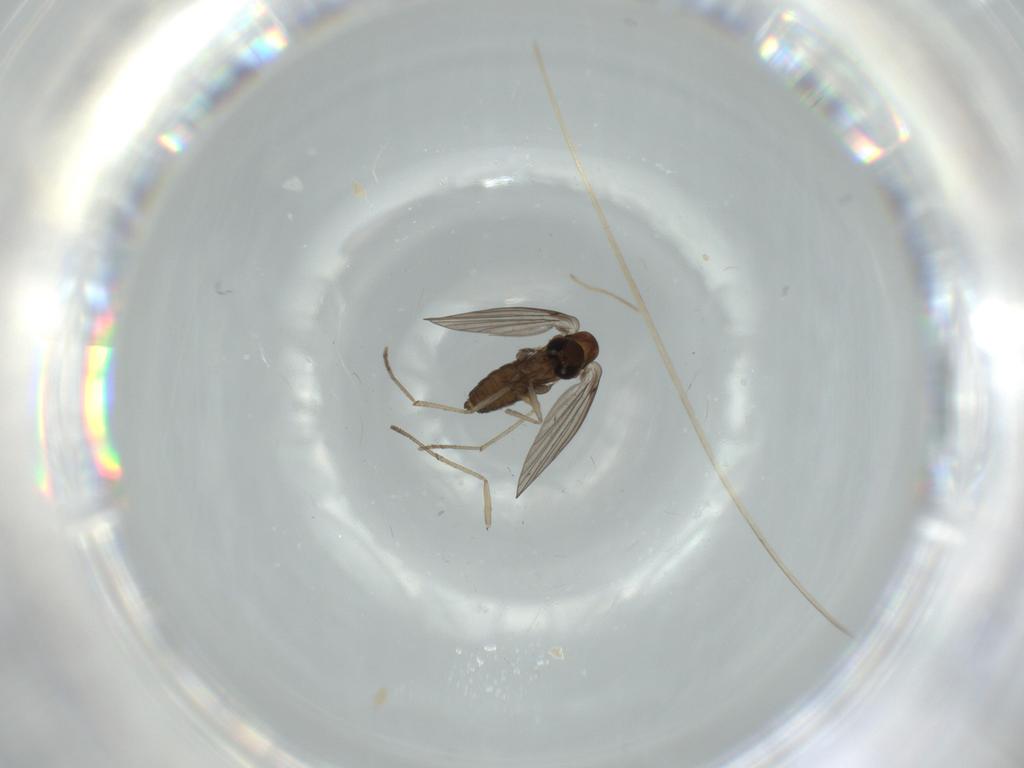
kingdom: Animalia
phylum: Arthropoda
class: Insecta
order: Diptera
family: Psychodidae
